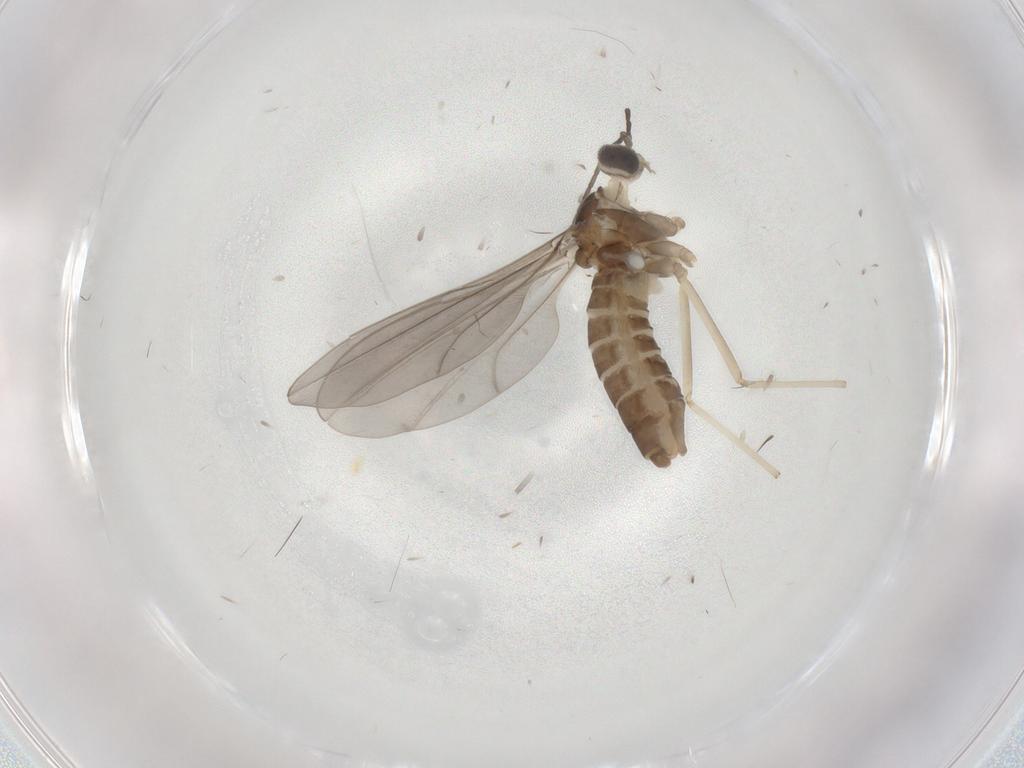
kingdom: Animalia
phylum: Arthropoda
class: Insecta
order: Diptera
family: Cecidomyiidae
